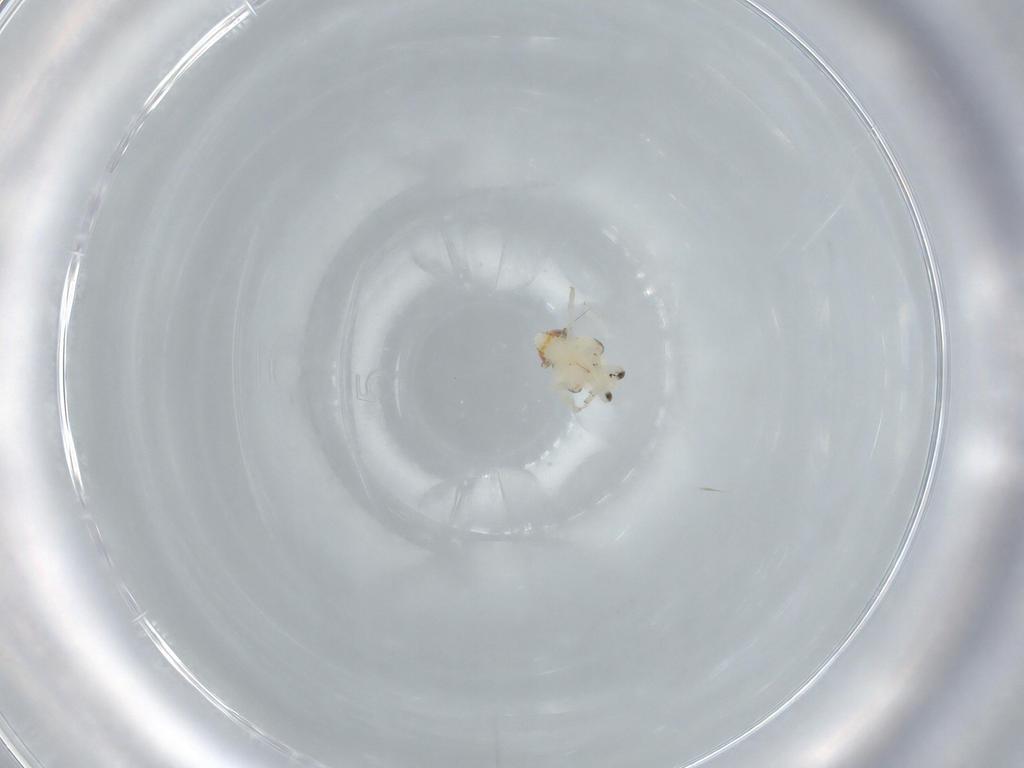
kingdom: Animalia
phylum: Arthropoda
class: Insecta
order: Hemiptera
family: Nogodinidae
